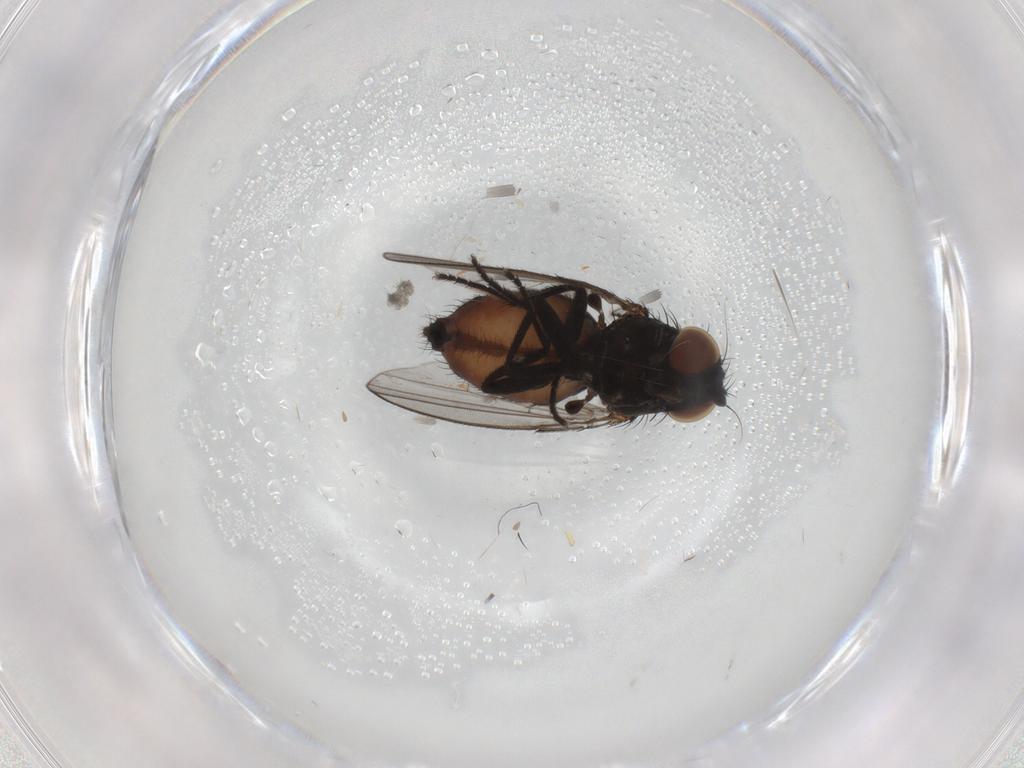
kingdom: Animalia
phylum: Arthropoda
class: Insecta
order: Diptera
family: Milichiidae
